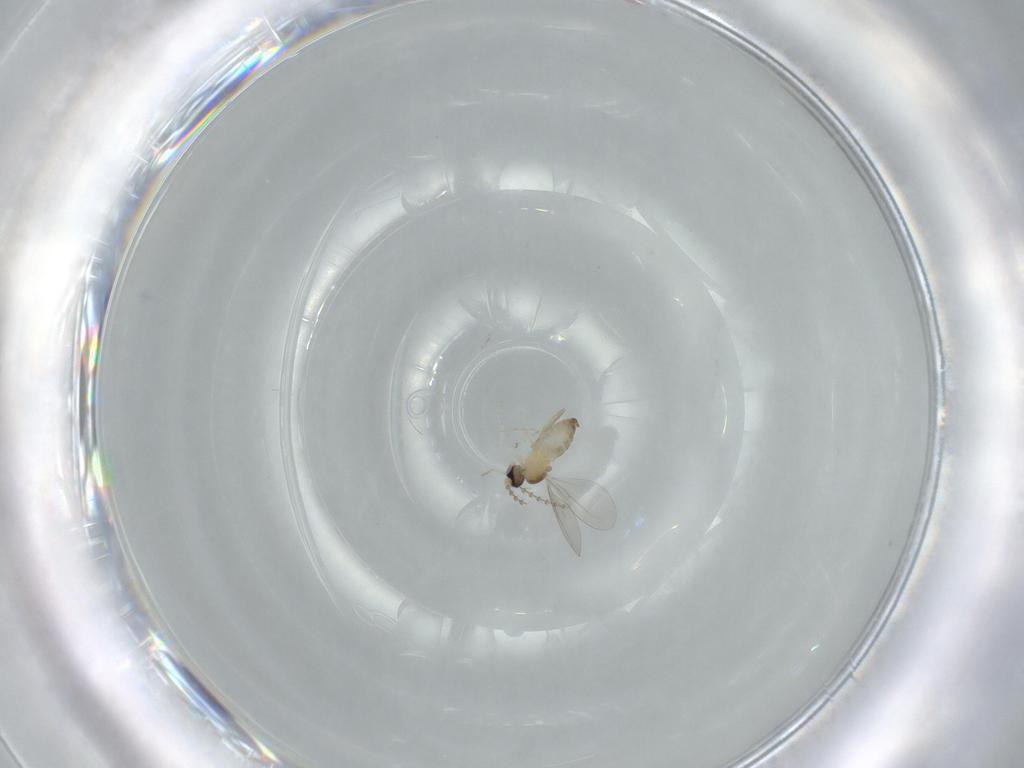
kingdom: Animalia
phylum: Arthropoda
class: Insecta
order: Diptera
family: Cecidomyiidae
